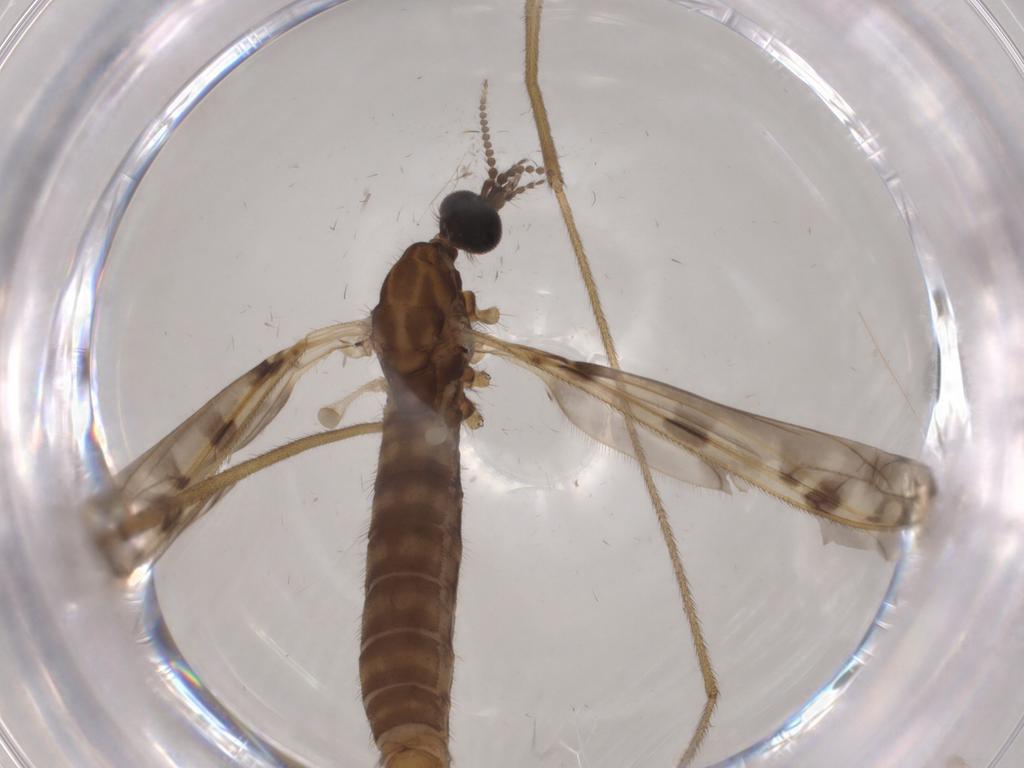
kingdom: Animalia
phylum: Arthropoda
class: Insecta
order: Diptera
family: Limoniidae
